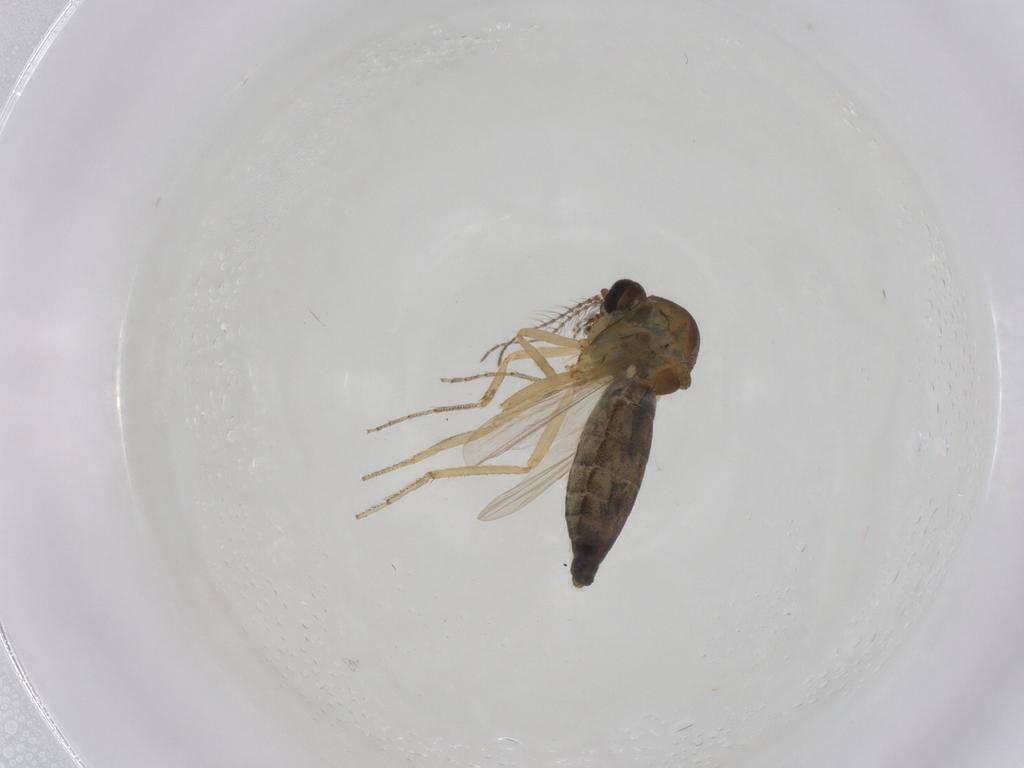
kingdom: Animalia
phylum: Arthropoda
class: Insecta
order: Diptera
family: Ceratopogonidae
